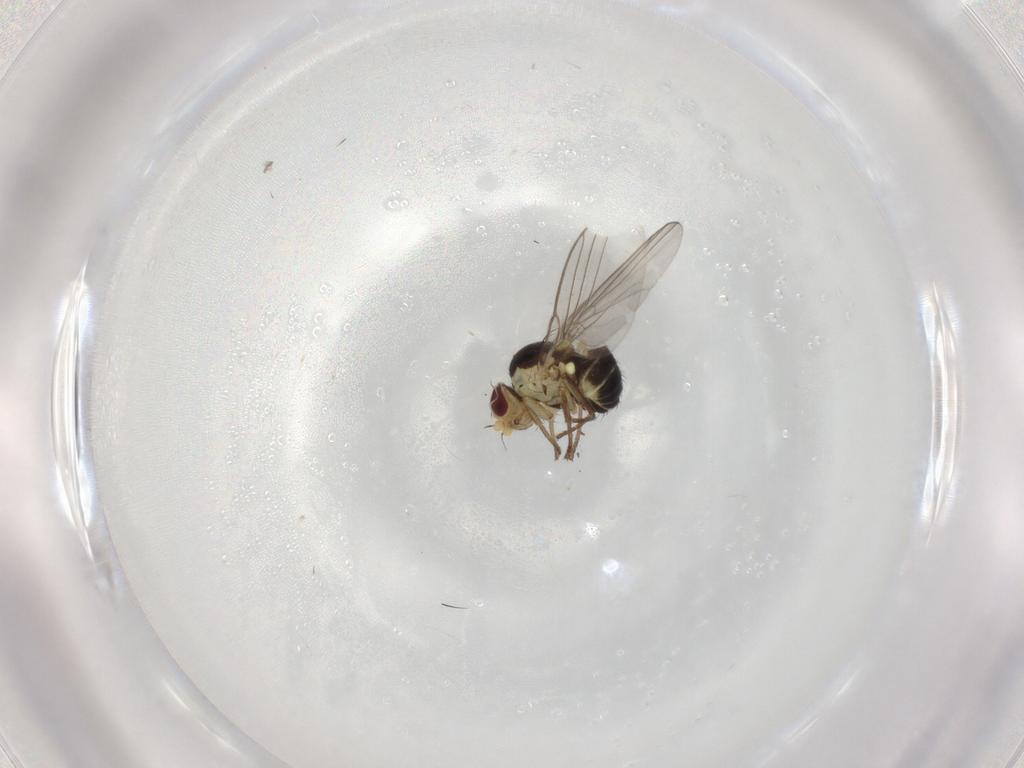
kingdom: Animalia
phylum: Arthropoda
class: Insecta
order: Diptera
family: Agromyzidae
